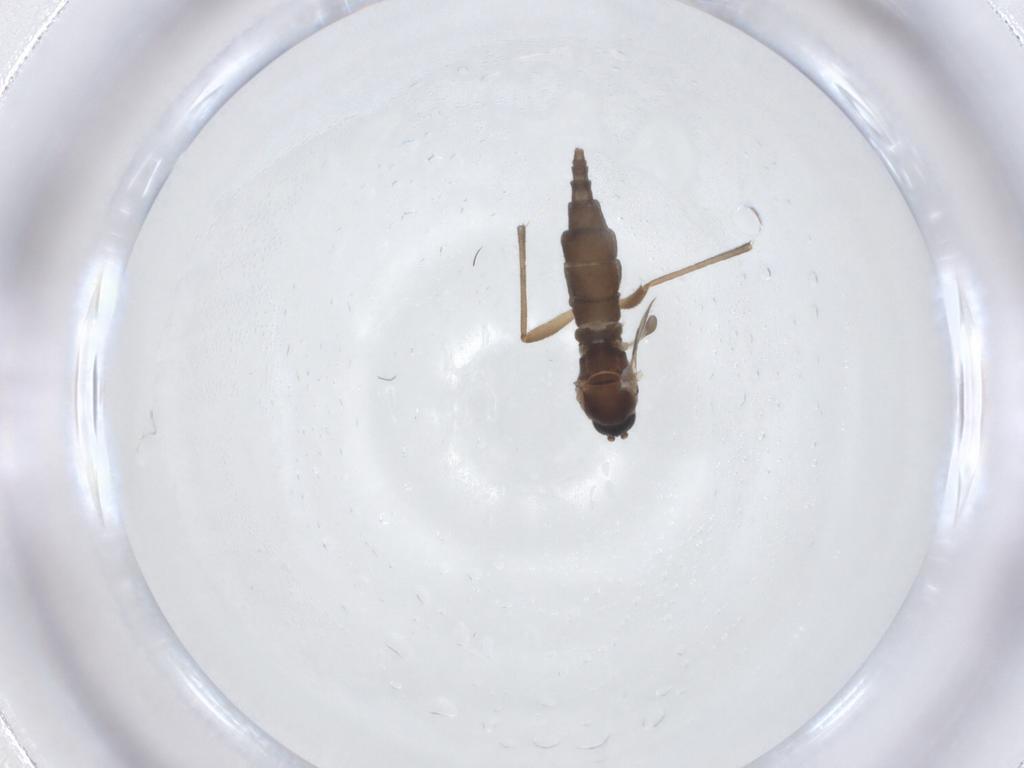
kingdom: Animalia
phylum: Arthropoda
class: Insecta
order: Diptera
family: Sciaridae
